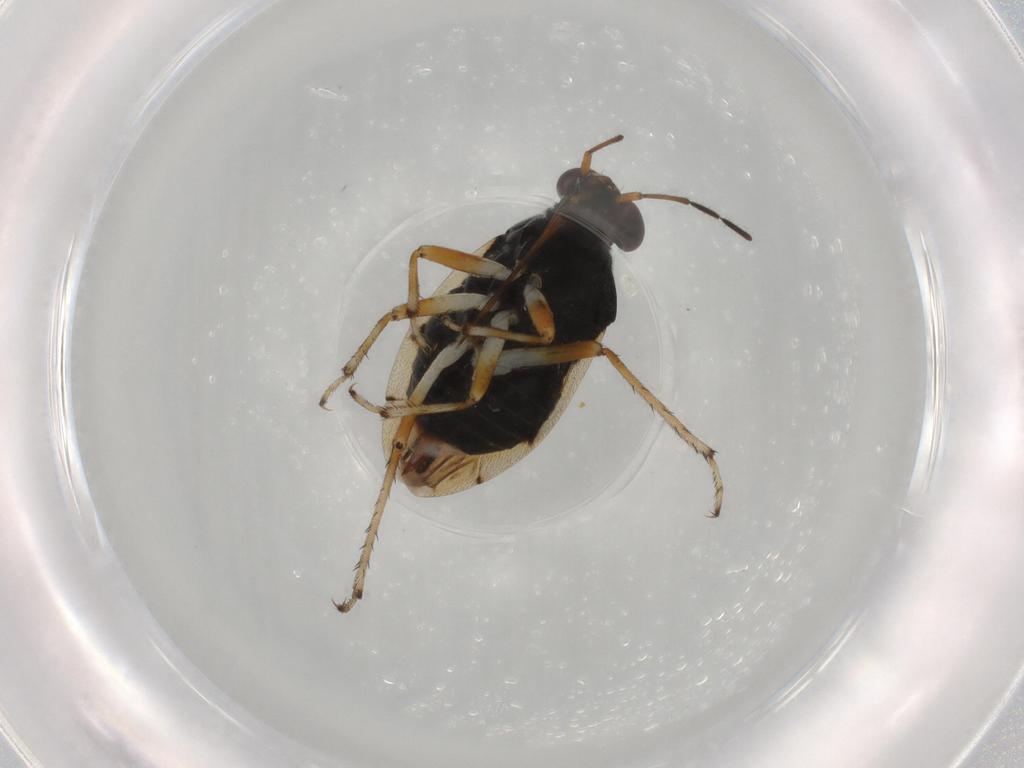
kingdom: Animalia
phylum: Arthropoda
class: Insecta
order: Hemiptera
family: Saldidae
